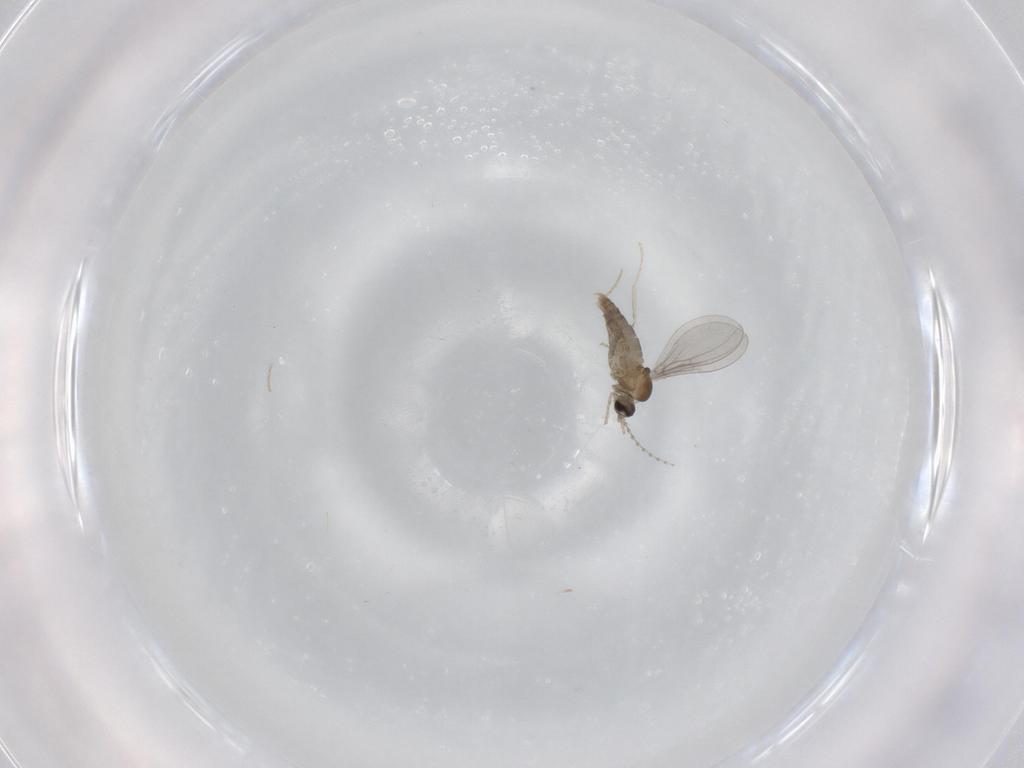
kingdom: Animalia
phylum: Arthropoda
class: Insecta
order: Diptera
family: Cecidomyiidae
